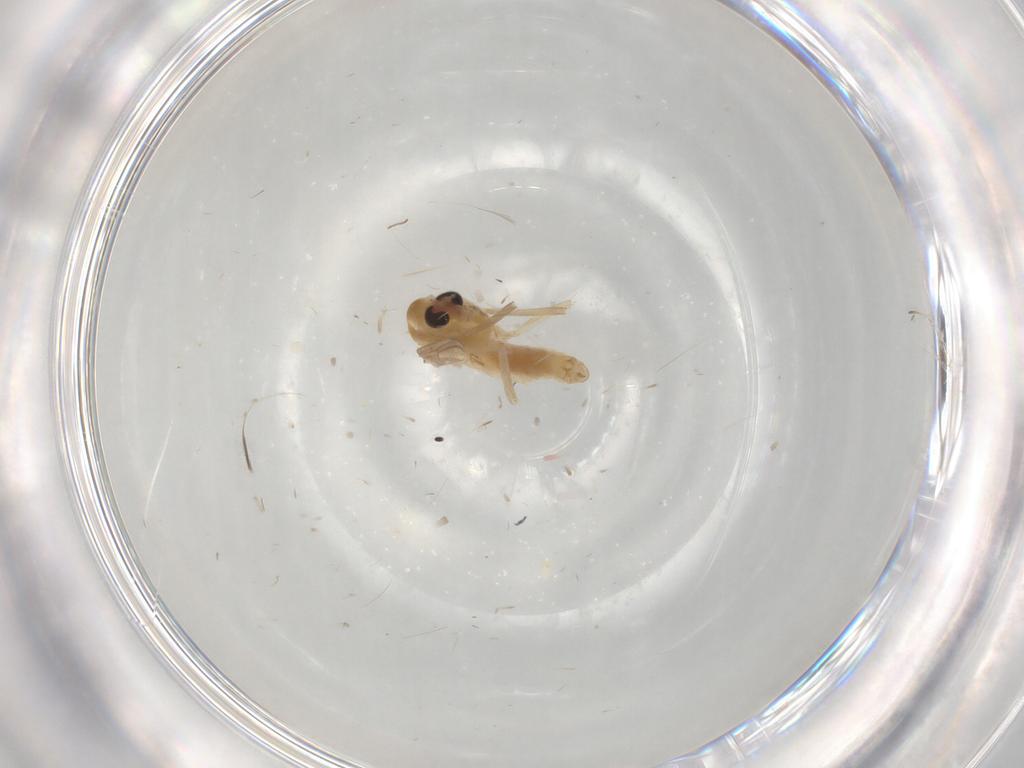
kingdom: Animalia
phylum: Arthropoda
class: Insecta
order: Diptera
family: Chironomidae
